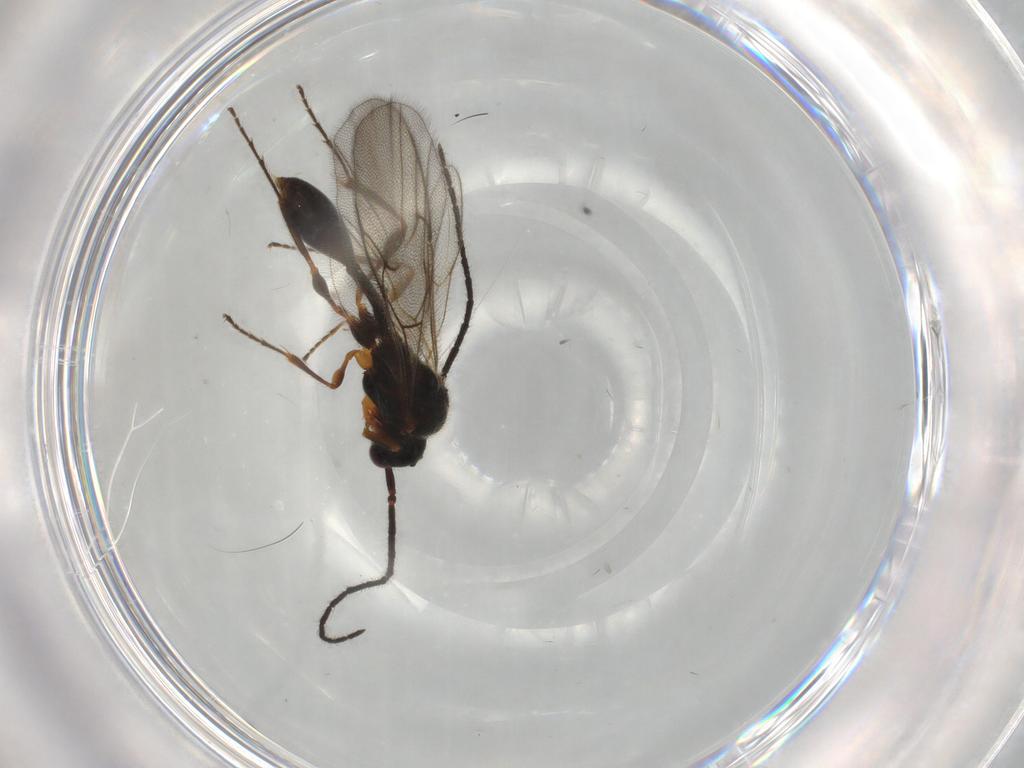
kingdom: Animalia
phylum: Arthropoda
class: Insecta
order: Hymenoptera
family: Diapriidae
